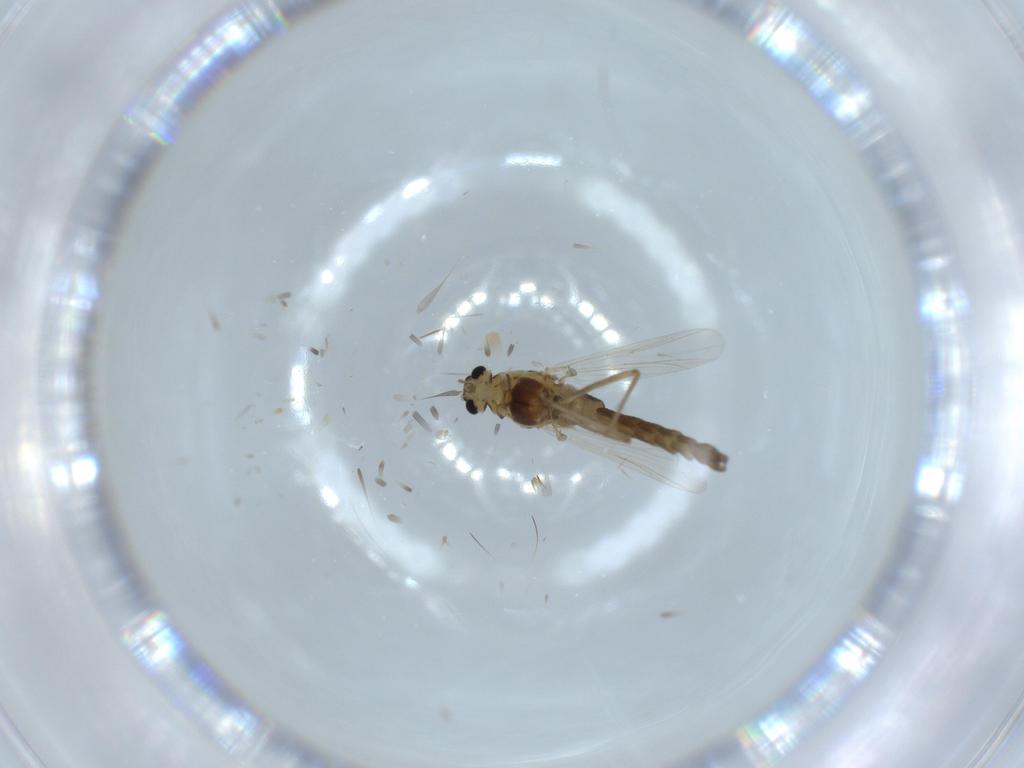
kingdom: Animalia
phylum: Arthropoda
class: Insecta
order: Diptera
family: Chironomidae
